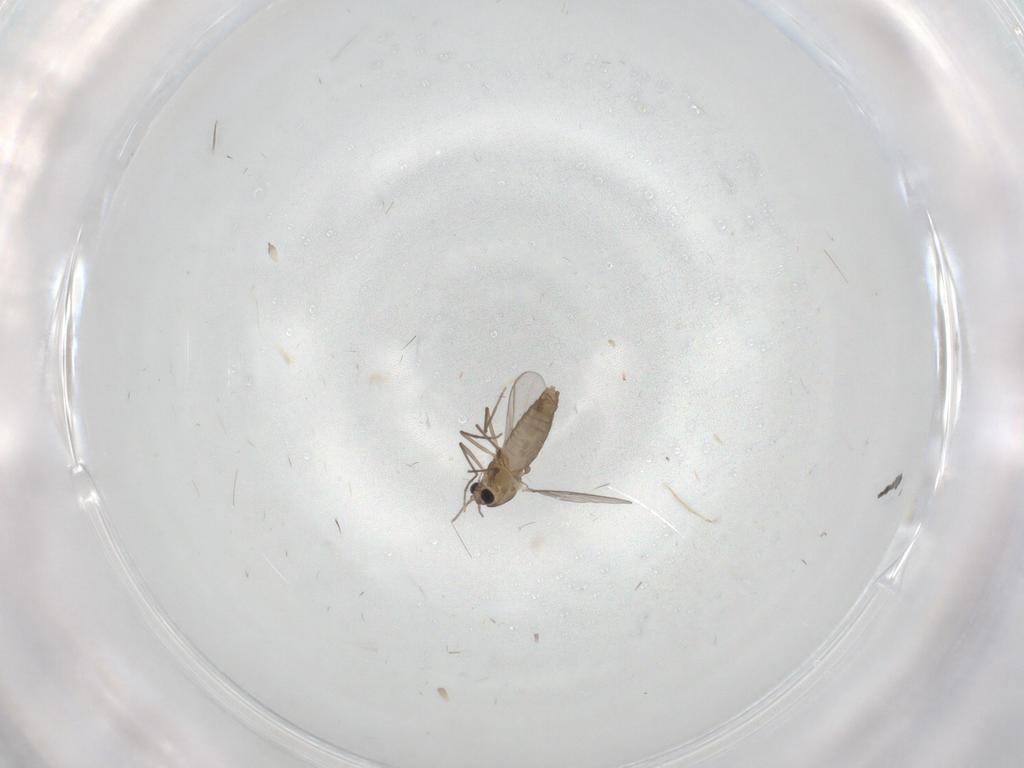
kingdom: Animalia
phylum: Arthropoda
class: Insecta
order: Diptera
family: Chironomidae
